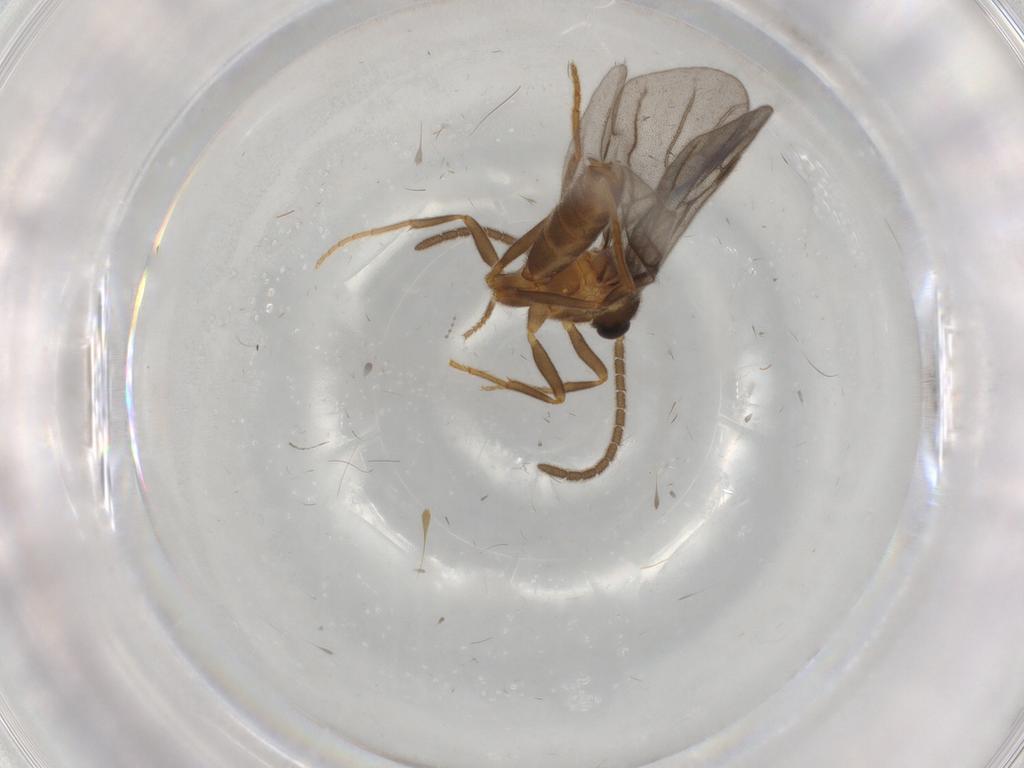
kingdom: Animalia
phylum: Arthropoda
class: Insecta
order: Hymenoptera
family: Formicidae
